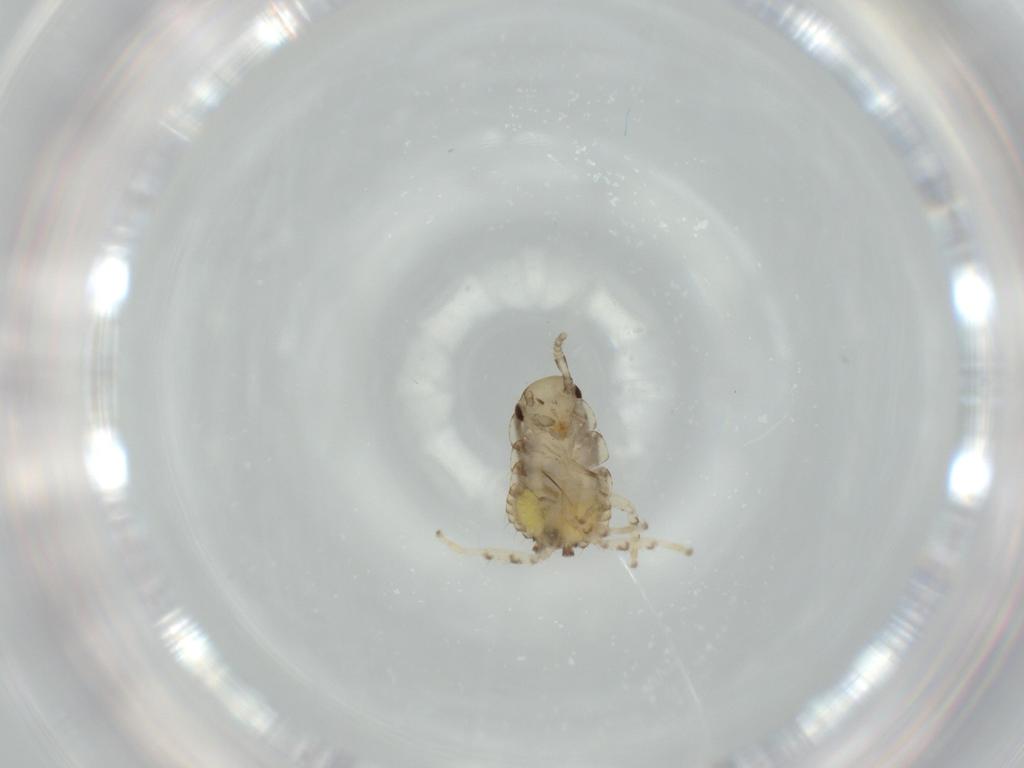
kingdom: Animalia
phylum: Arthropoda
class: Insecta
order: Blattodea
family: Ectobiidae
